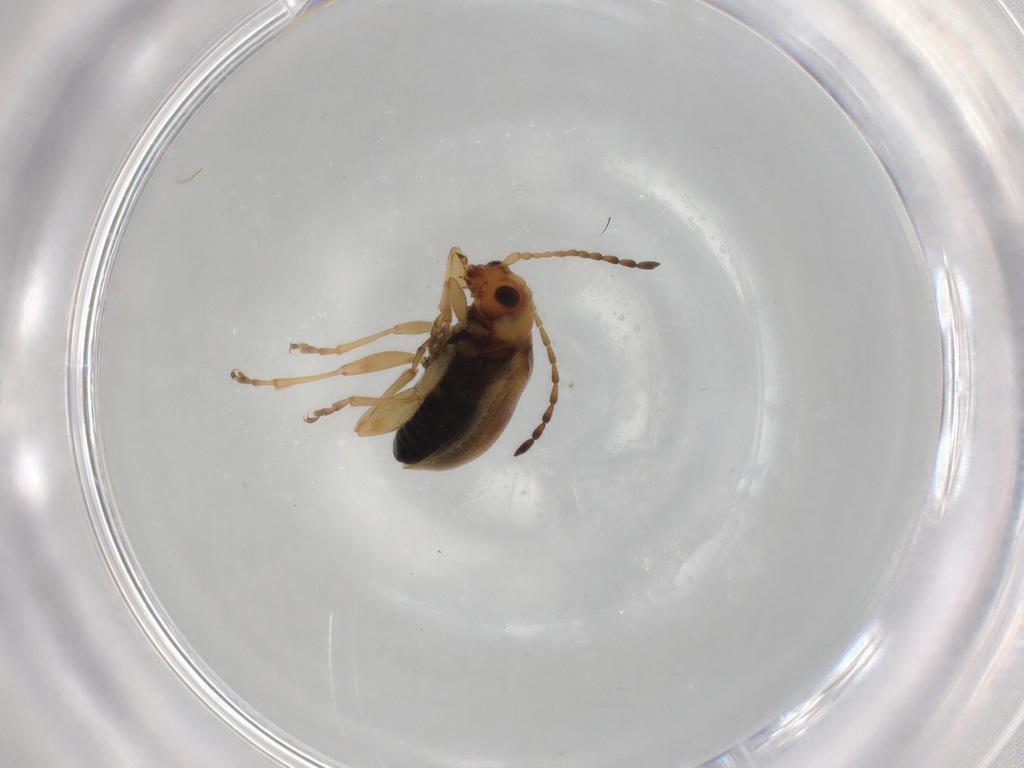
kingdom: Animalia
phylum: Arthropoda
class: Insecta
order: Coleoptera
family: Chrysomelidae
